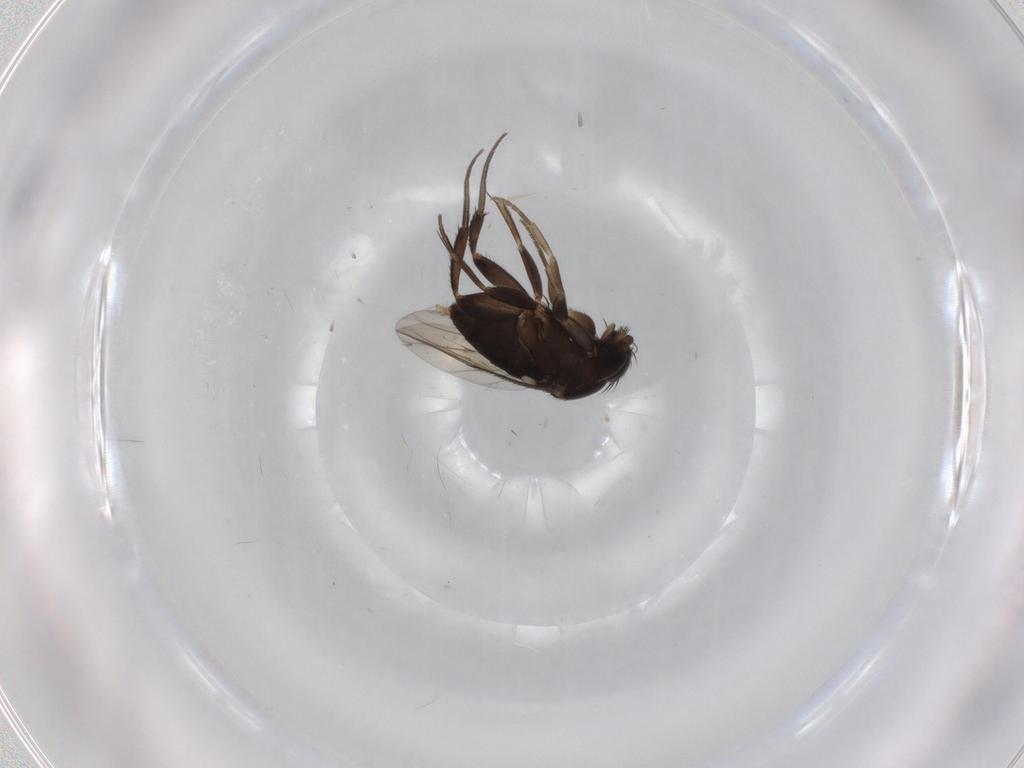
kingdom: Animalia
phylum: Arthropoda
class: Insecta
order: Diptera
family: Phoridae
